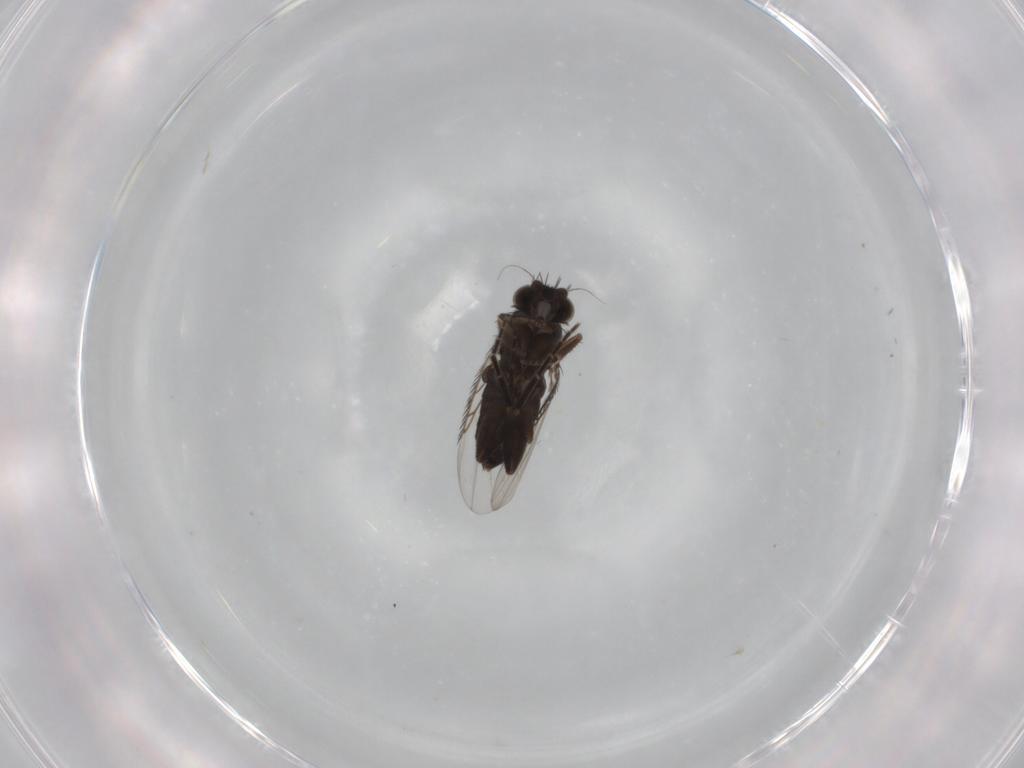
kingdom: Animalia
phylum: Arthropoda
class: Insecta
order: Diptera
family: Phoridae
